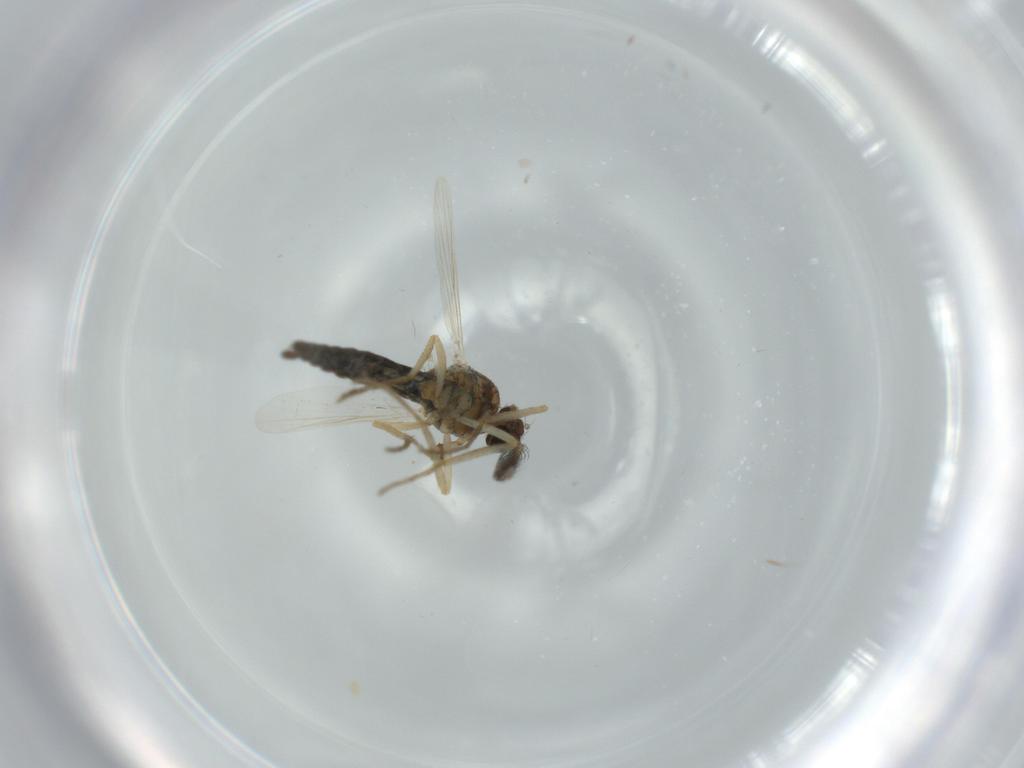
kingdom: Animalia
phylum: Arthropoda
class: Insecta
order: Diptera
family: Ceratopogonidae
